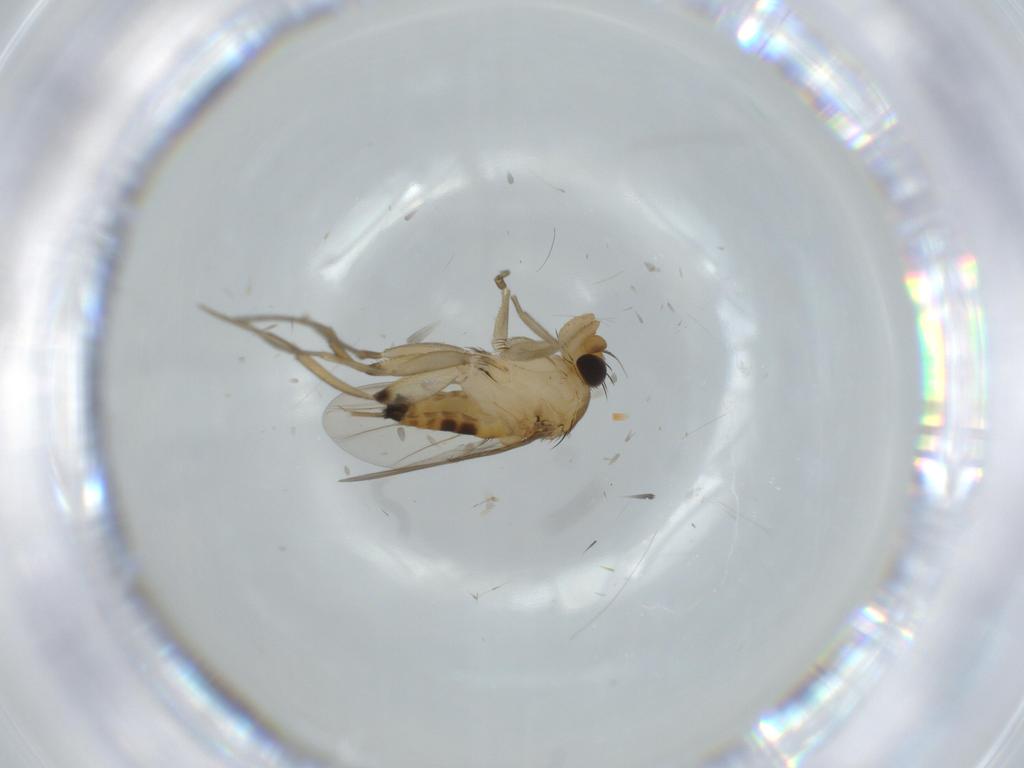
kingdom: Animalia
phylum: Arthropoda
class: Insecta
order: Diptera
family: Phoridae
